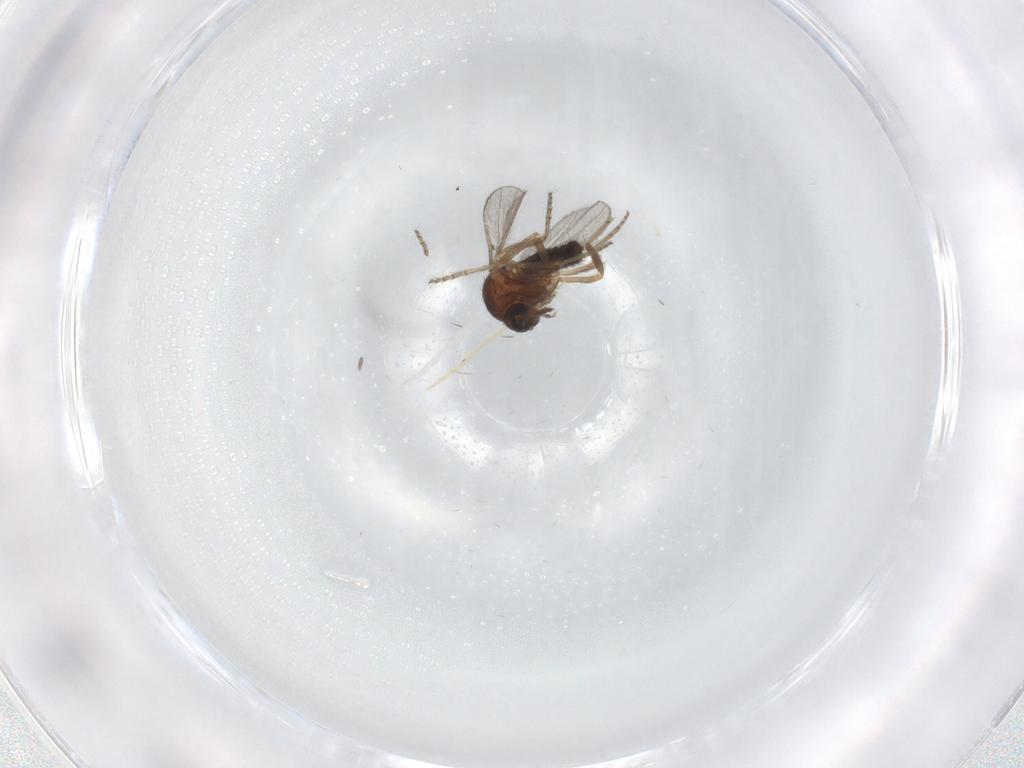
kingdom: Animalia
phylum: Arthropoda
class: Insecta
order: Diptera
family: Ceratopogonidae
